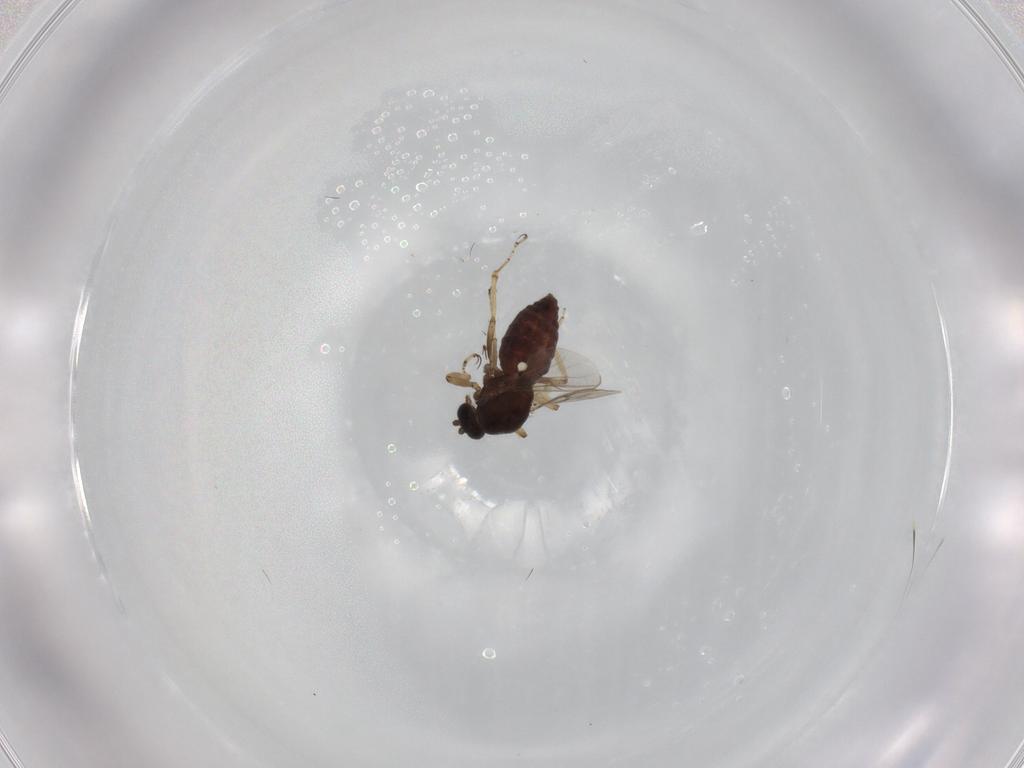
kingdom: Animalia
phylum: Arthropoda
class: Insecta
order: Diptera
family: Ceratopogonidae
